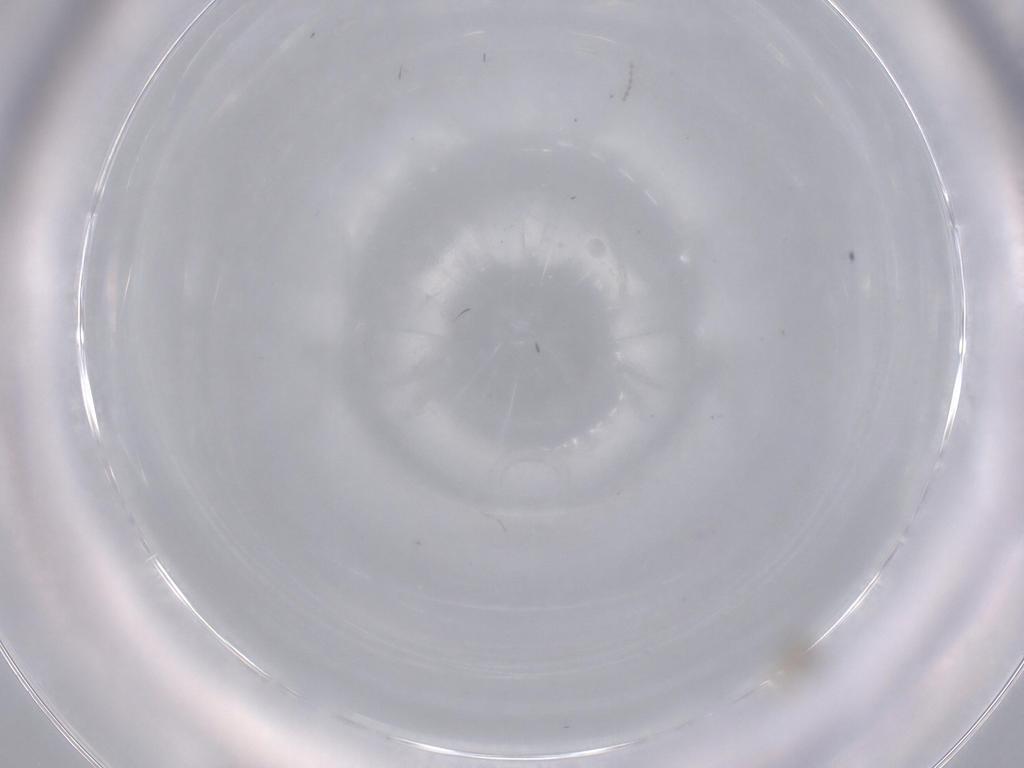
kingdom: Animalia
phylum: Arthropoda
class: Insecta
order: Diptera
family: Cecidomyiidae
